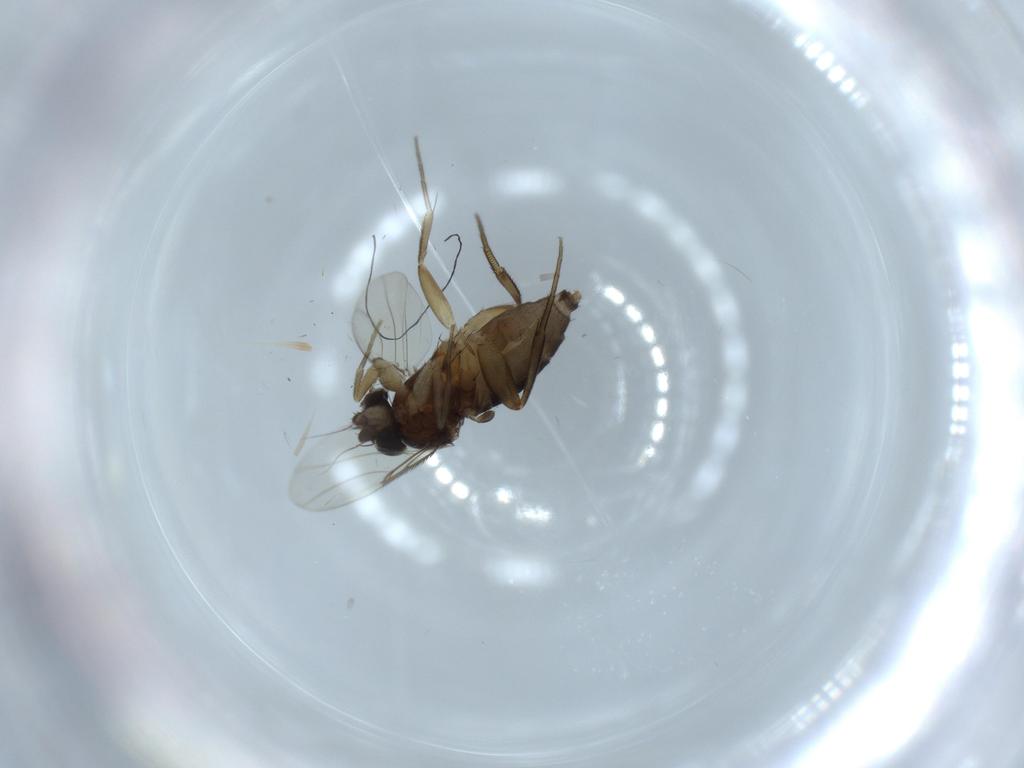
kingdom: Animalia
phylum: Arthropoda
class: Insecta
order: Diptera
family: Cecidomyiidae
